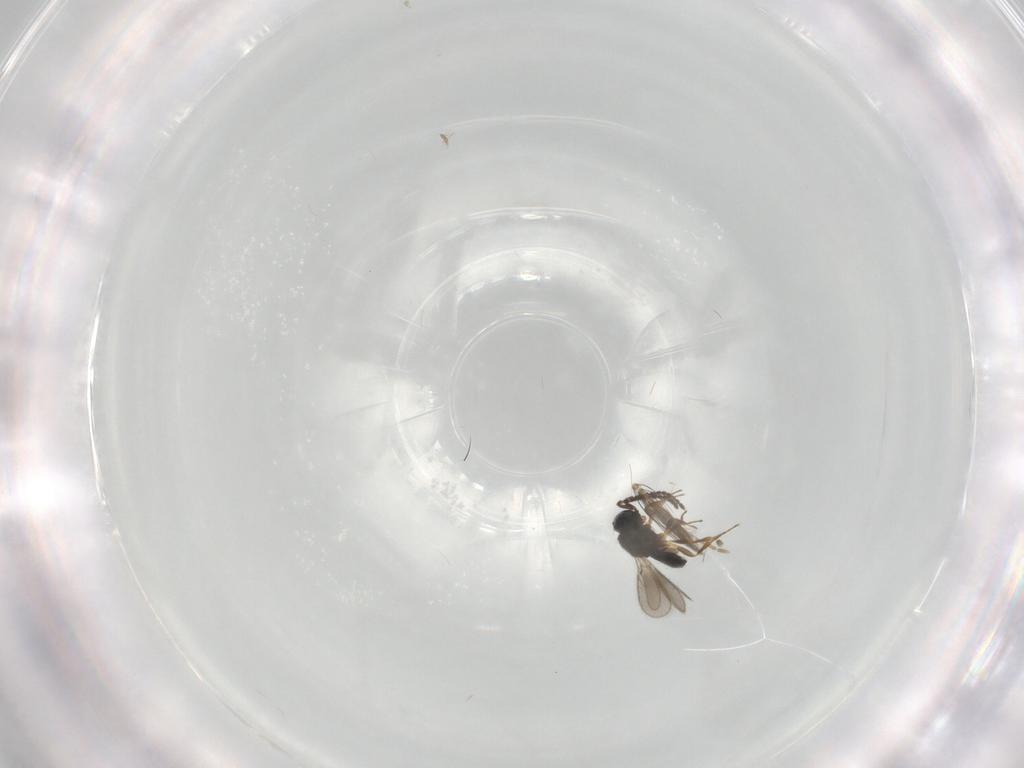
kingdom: Animalia
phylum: Arthropoda
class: Insecta
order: Hymenoptera
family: Scelionidae
